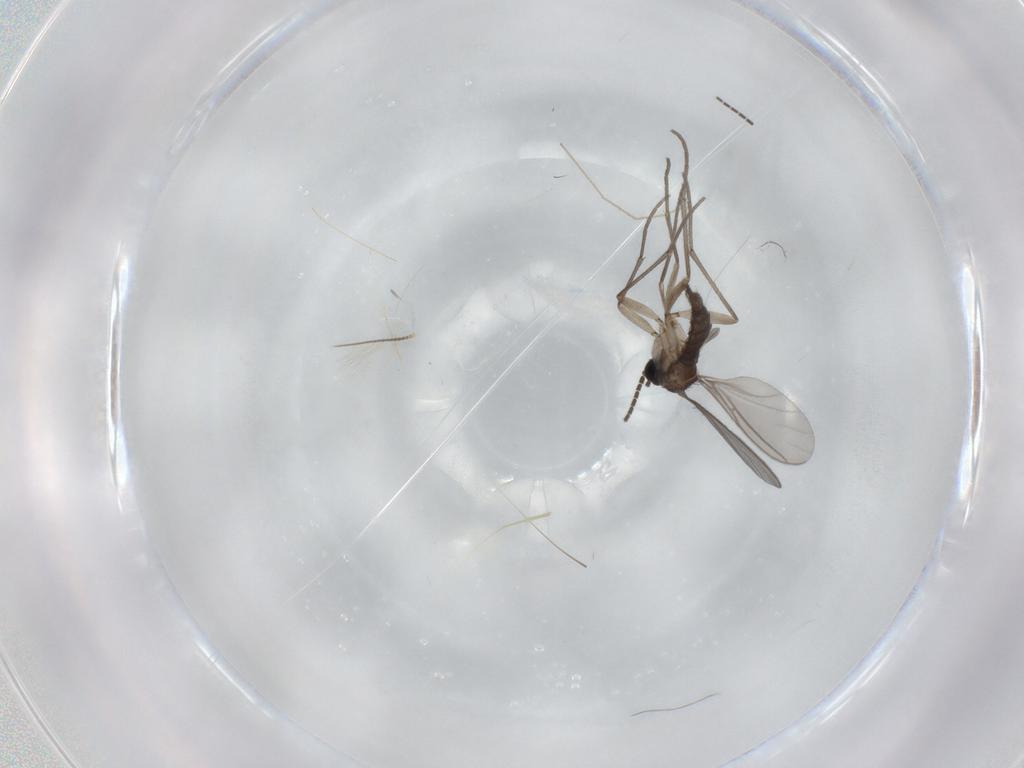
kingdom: Animalia
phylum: Arthropoda
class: Insecta
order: Diptera
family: Sciaridae
